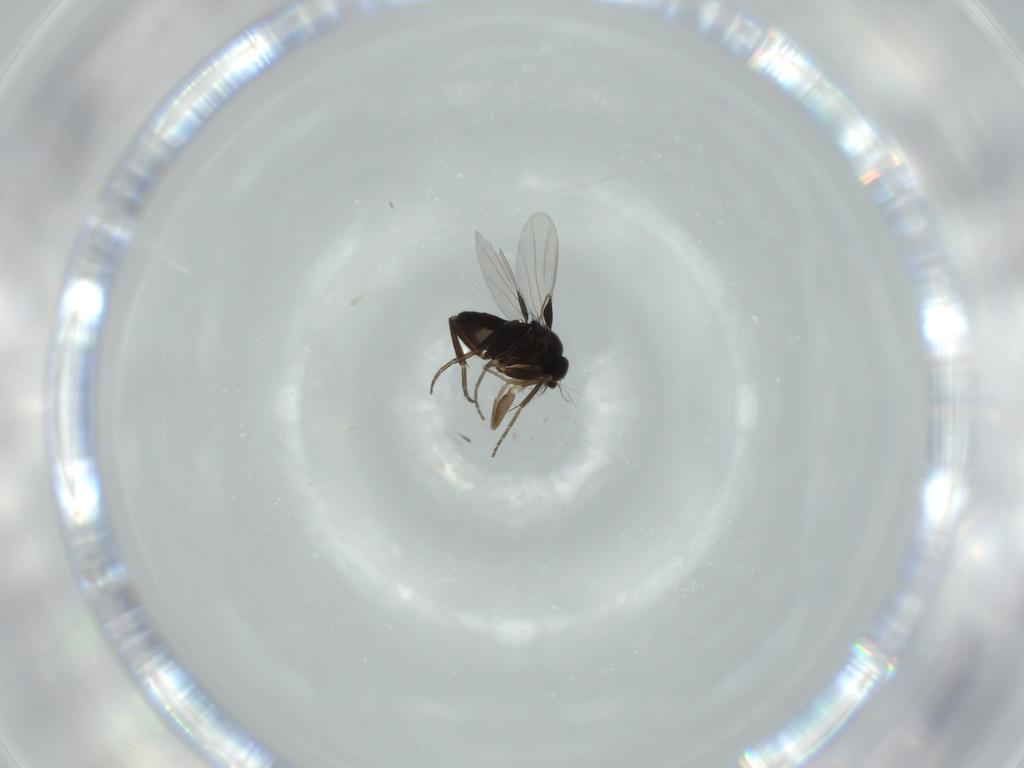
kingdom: Animalia
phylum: Arthropoda
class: Insecta
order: Diptera
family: Phoridae
